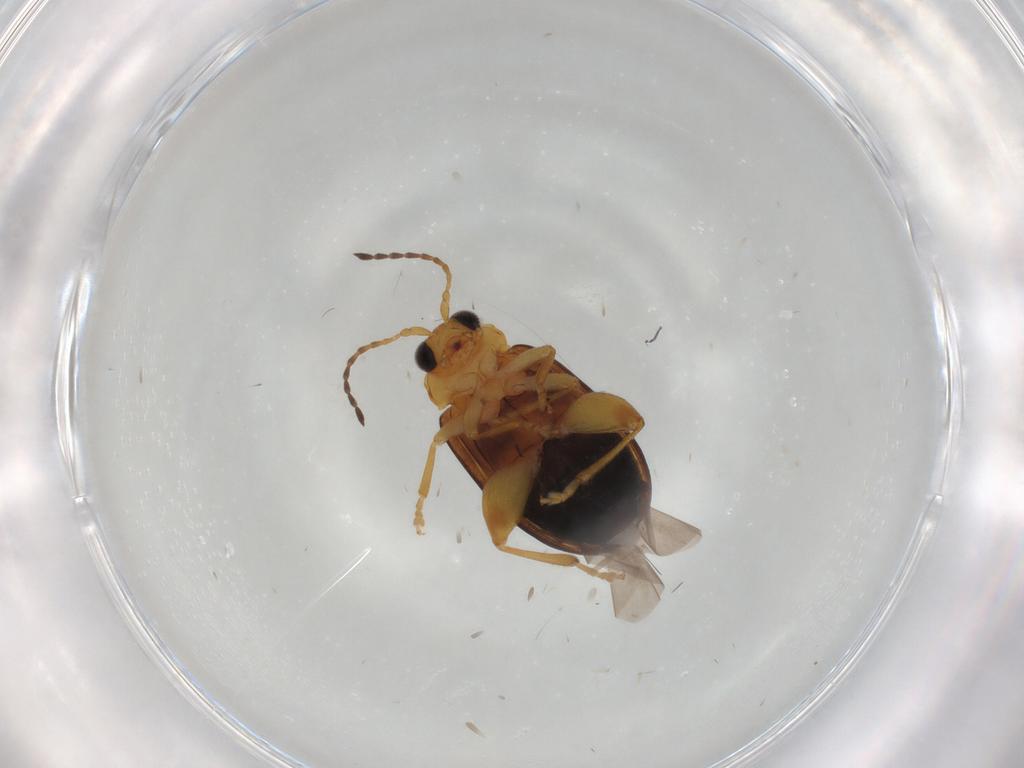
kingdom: Animalia
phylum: Arthropoda
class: Insecta
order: Coleoptera
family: Chrysomelidae
